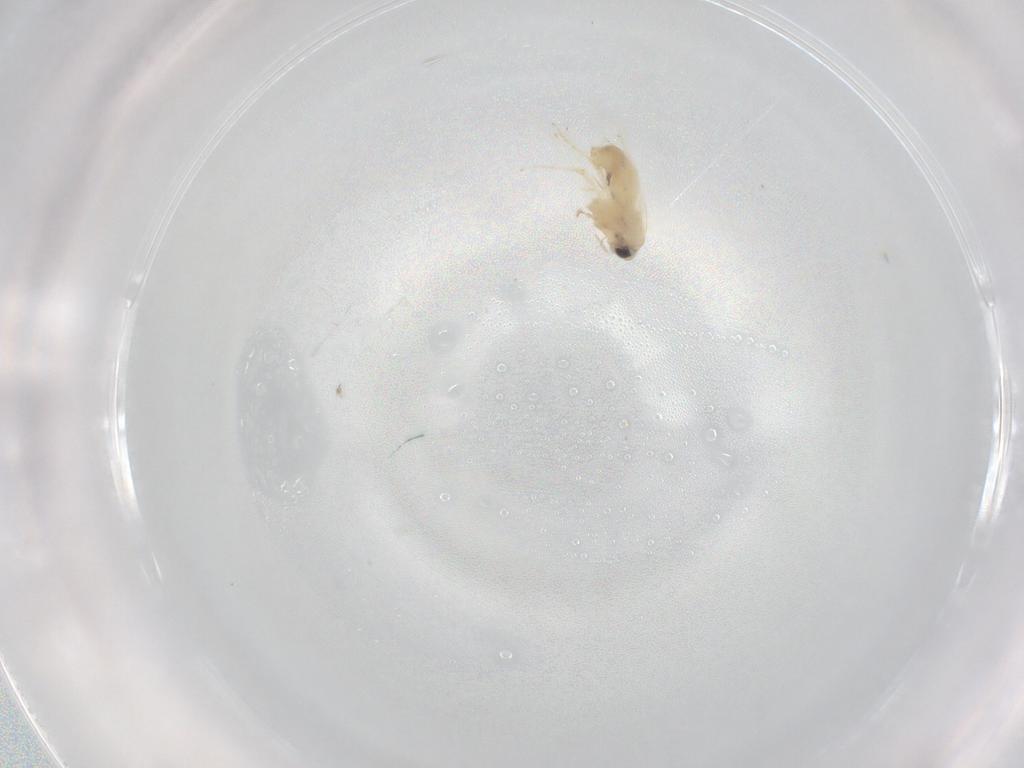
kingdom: Animalia
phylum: Arthropoda
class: Insecta
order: Lepidoptera
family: Nepticulidae
